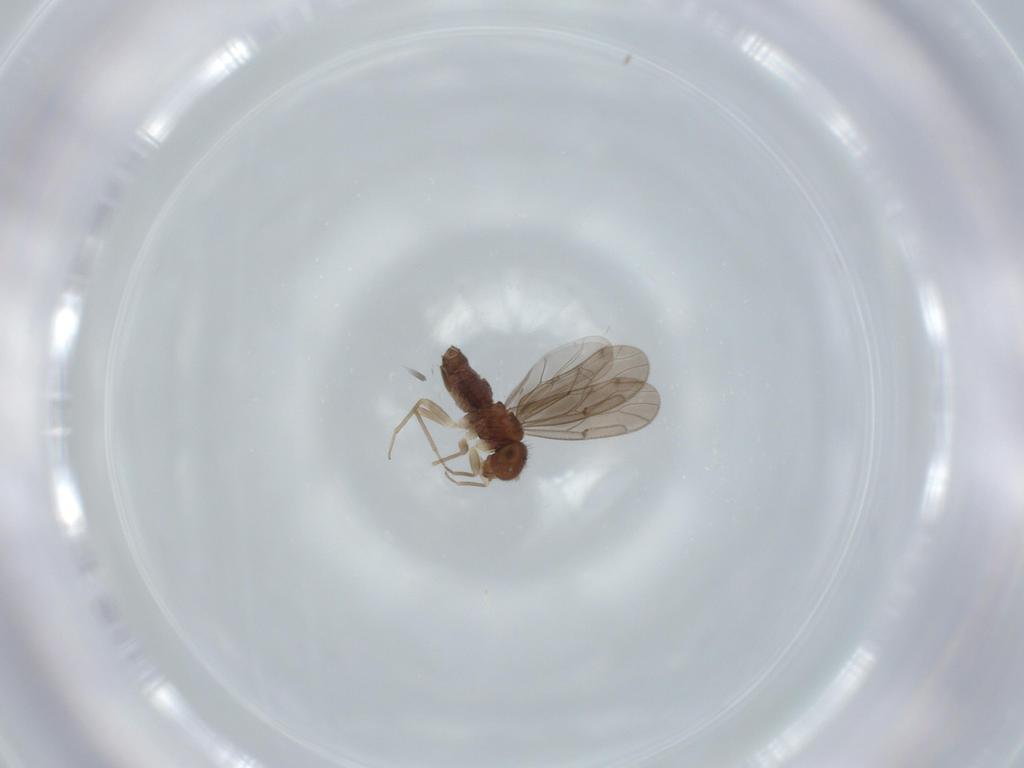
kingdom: Animalia
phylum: Arthropoda
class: Insecta
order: Psocodea
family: Ectopsocidae
